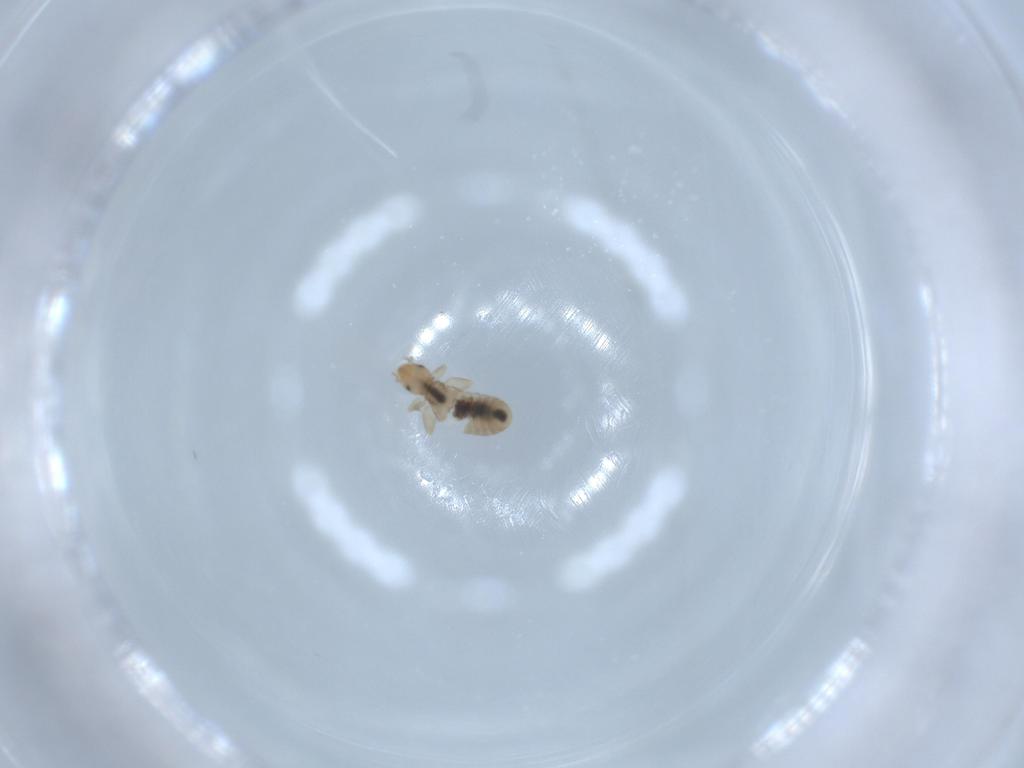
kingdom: Animalia
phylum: Arthropoda
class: Insecta
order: Psocodea
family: Liposcelididae
